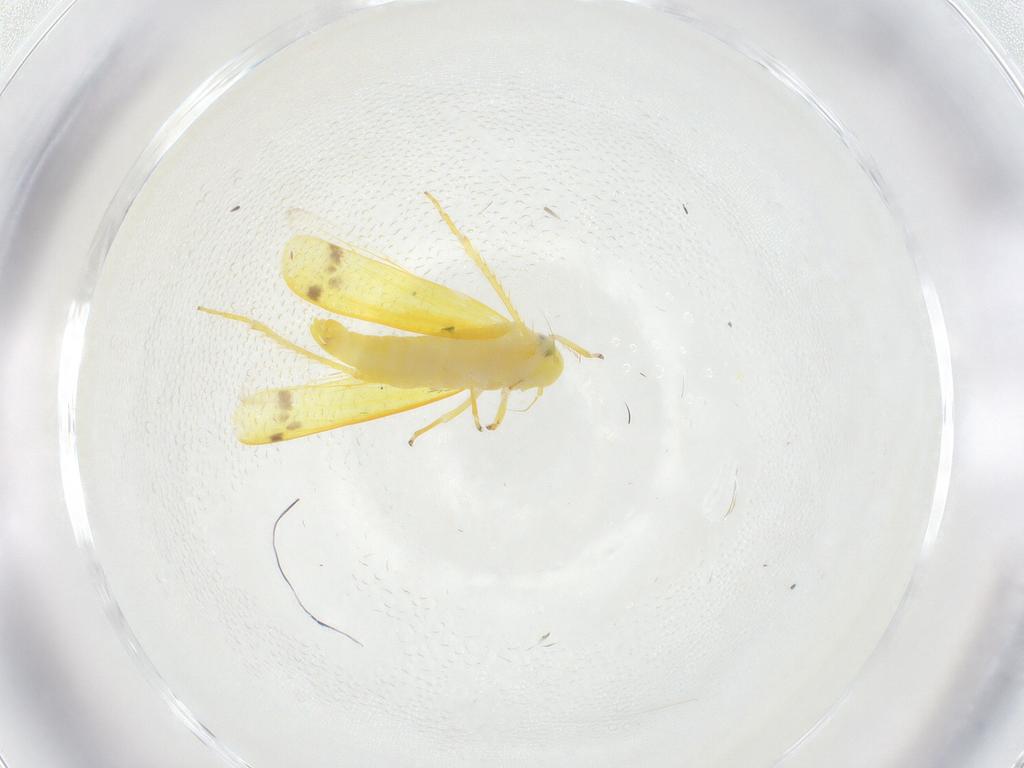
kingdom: Animalia
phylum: Arthropoda
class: Insecta
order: Hemiptera
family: Cicadellidae
